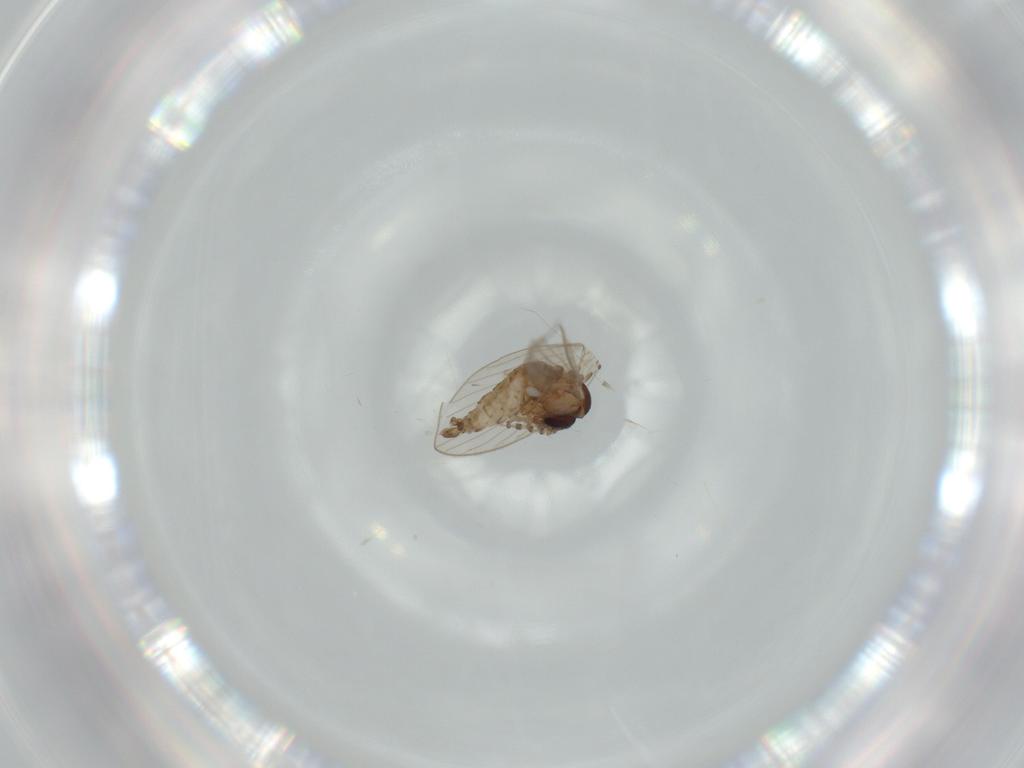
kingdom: Animalia
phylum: Arthropoda
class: Insecta
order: Diptera
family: Psychodidae
